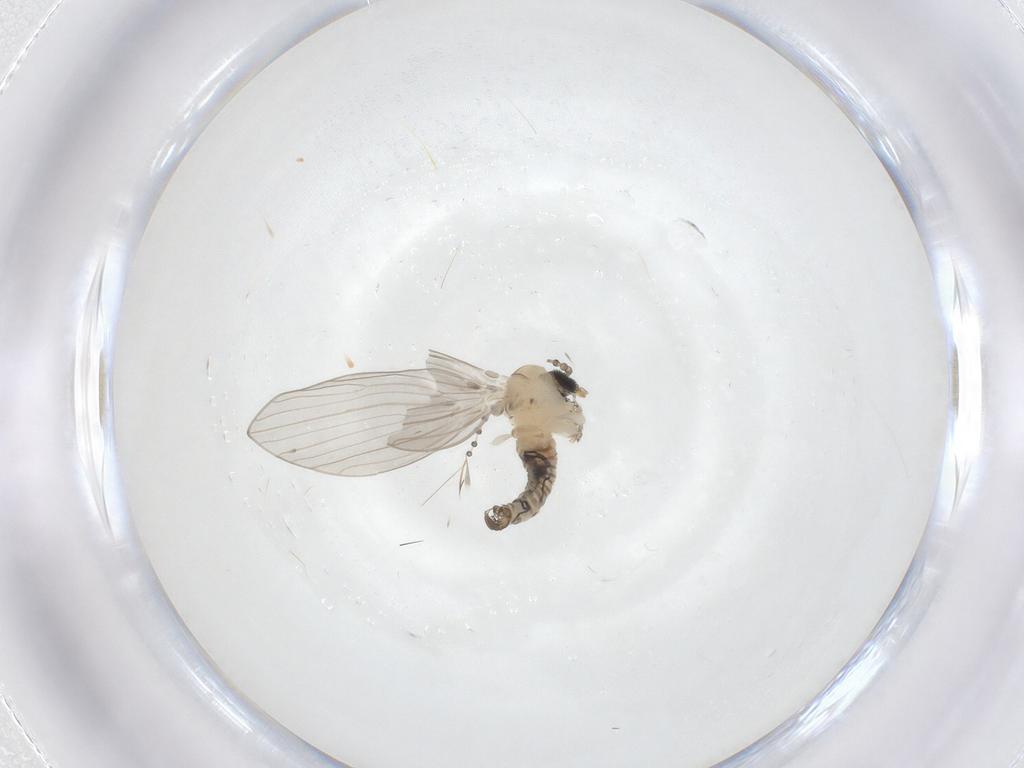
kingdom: Animalia
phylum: Arthropoda
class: Insecta
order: Diptera
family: Psychodidae
